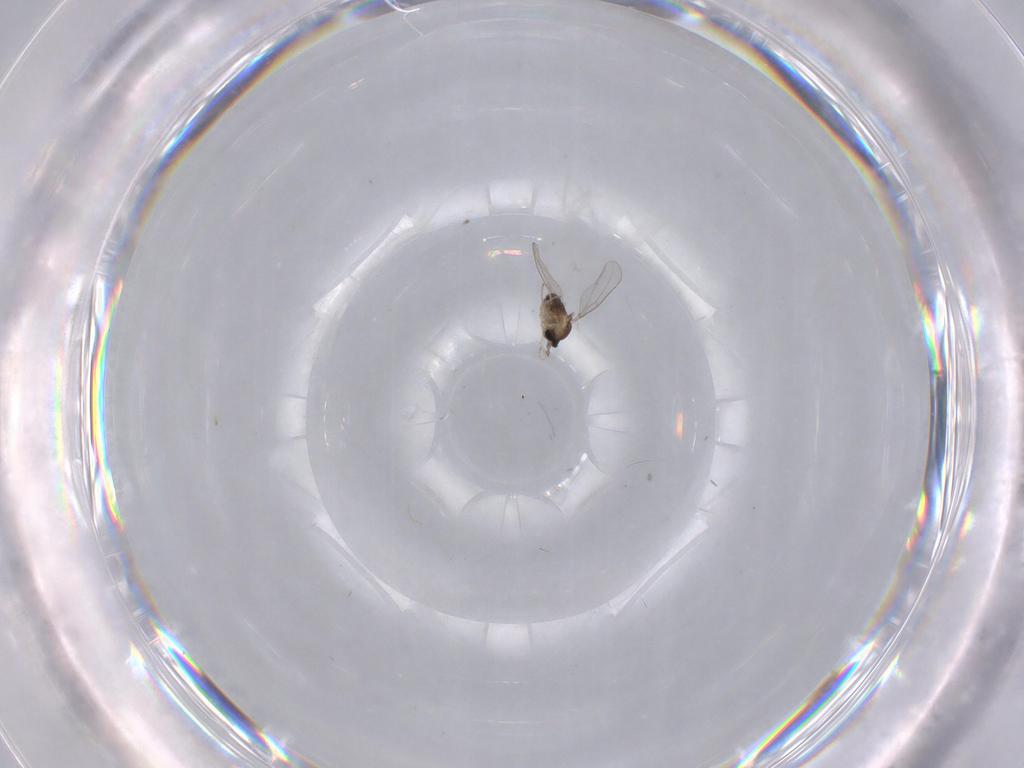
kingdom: Animalia
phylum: Arthropoda
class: Insecta
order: Diptera
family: Cecidomyiidae
